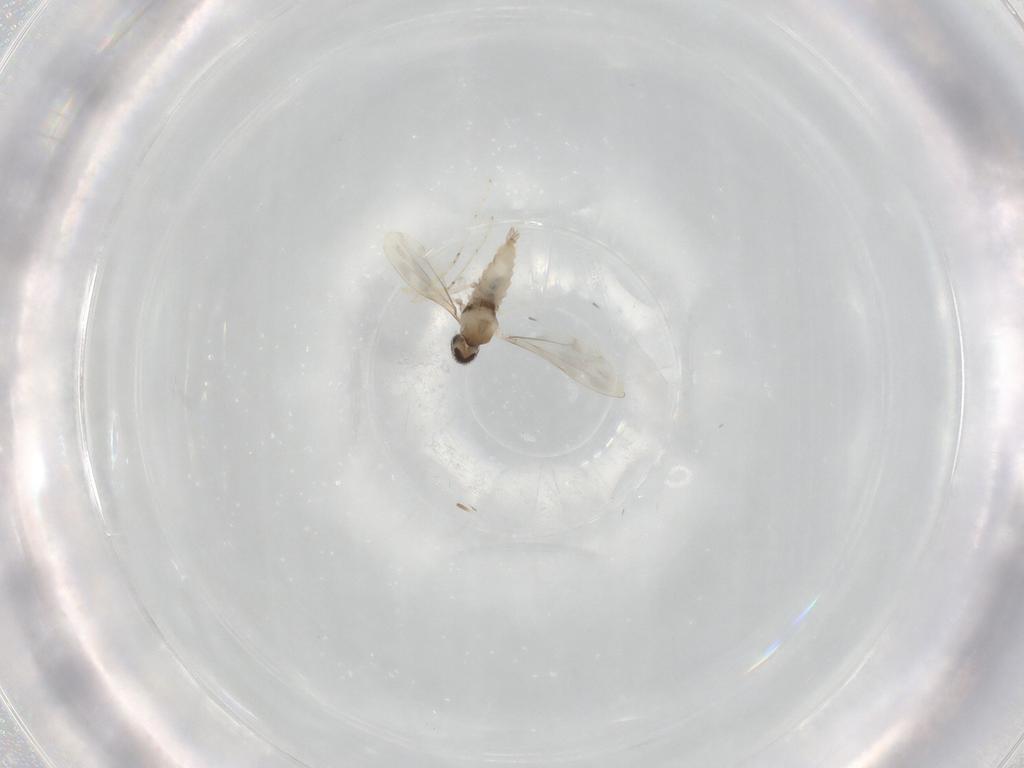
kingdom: Animalia
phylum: Arthropoda
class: Insecta
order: Diptera
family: Cecidomyiidae
